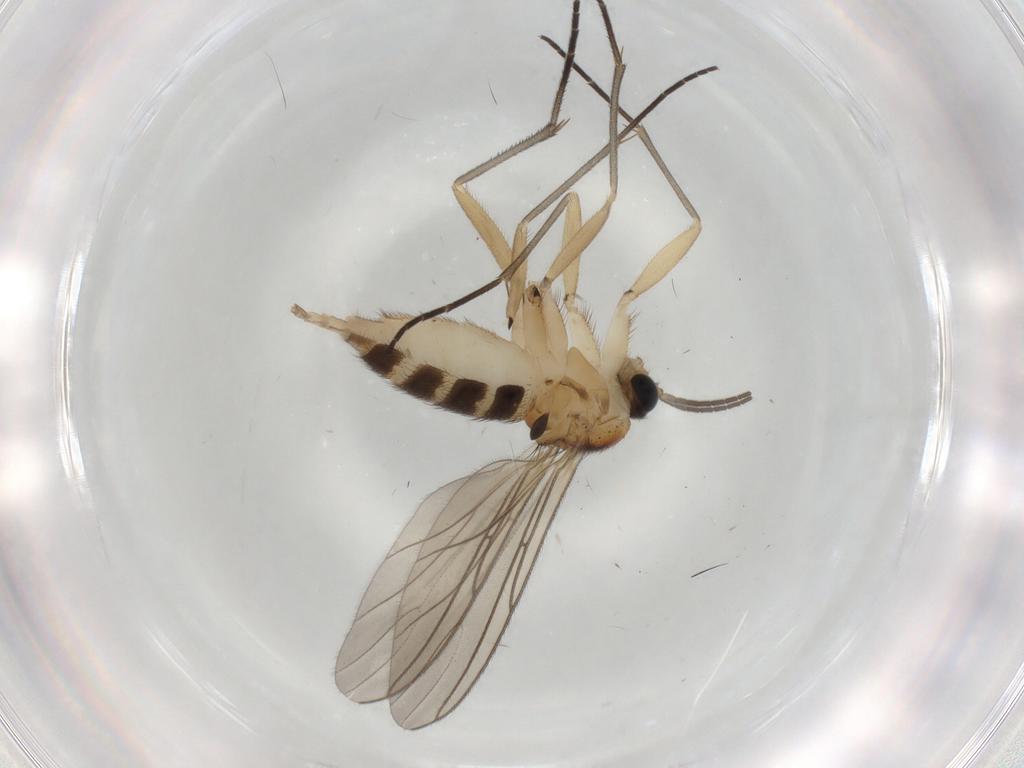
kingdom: Animalia
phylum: Arthropoda
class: Insecta
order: Diptera
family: Sciaridae
